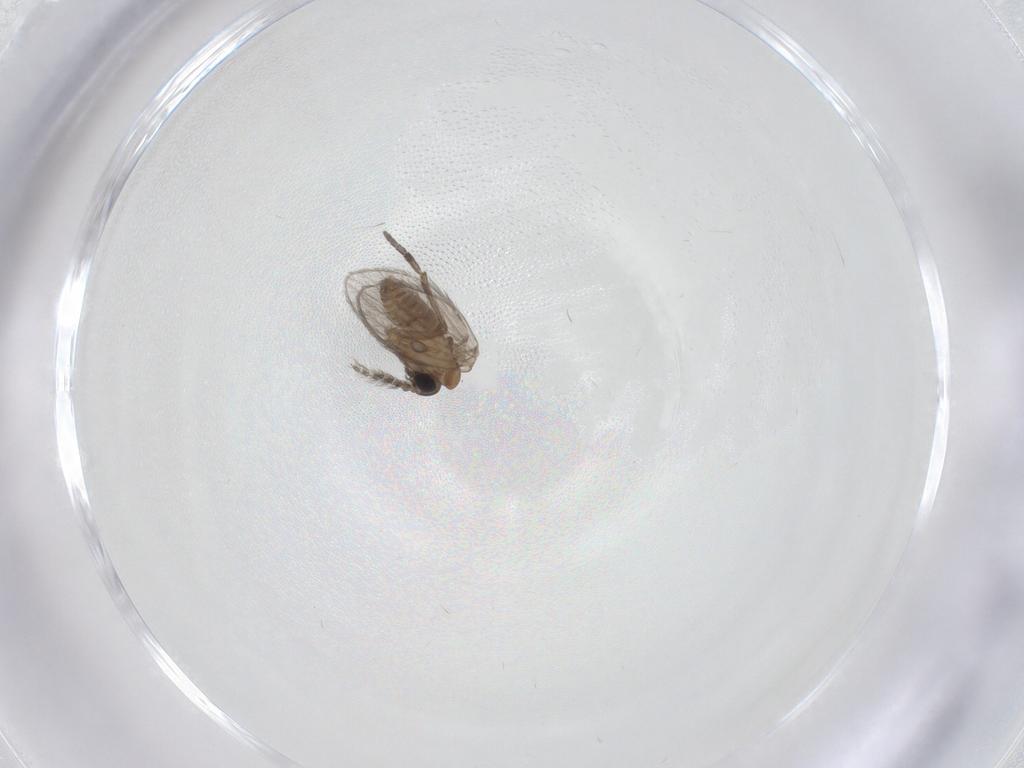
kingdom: Animalia
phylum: Arthropoda
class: Insecta
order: Diptera
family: Psychodidae
